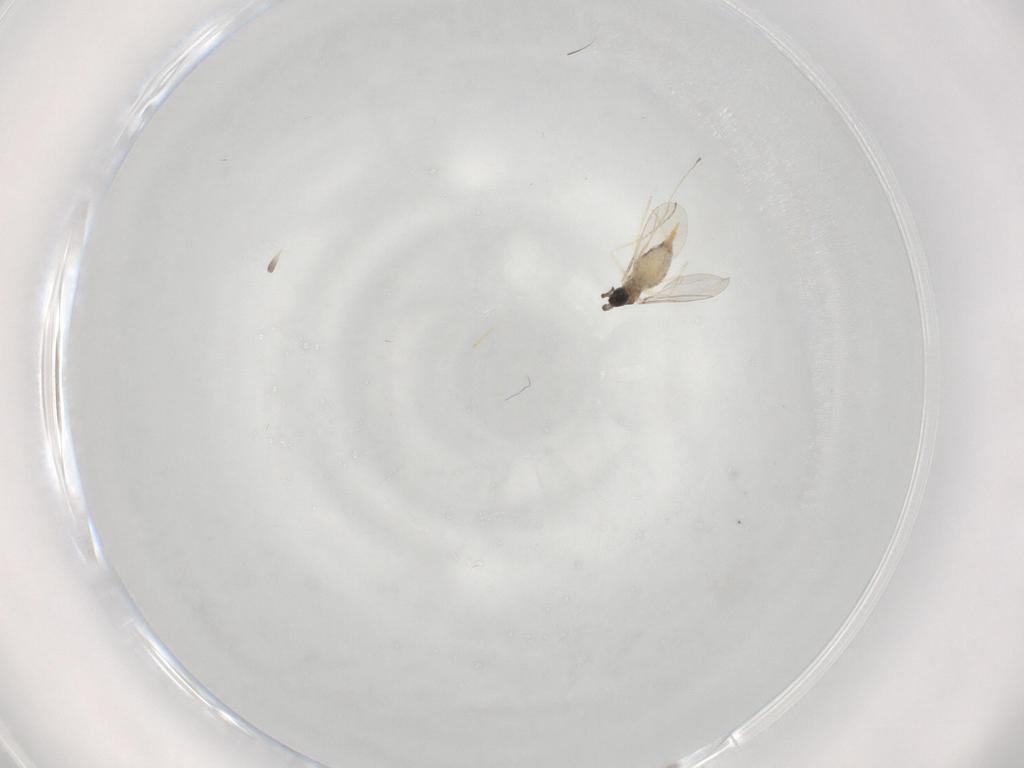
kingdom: Animalia
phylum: Arthropoda
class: Insecta
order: Diptera
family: Cecidomyiidae
